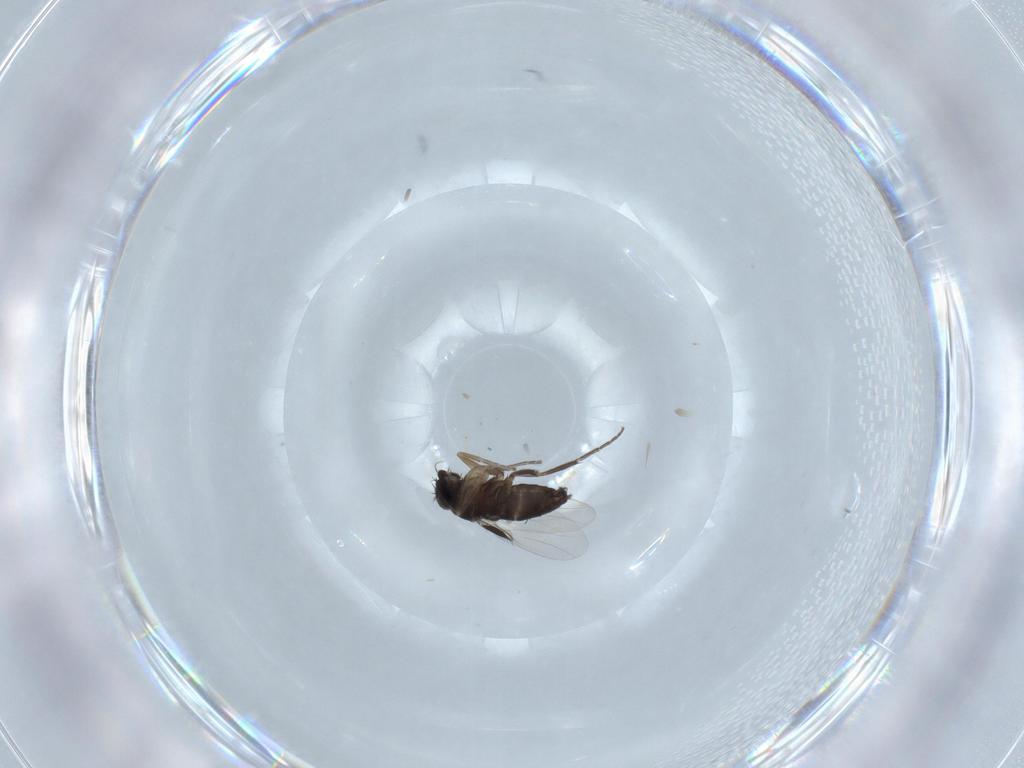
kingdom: Animalia
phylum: Arthropoda
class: Insecta
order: Diptera
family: Phoridae
